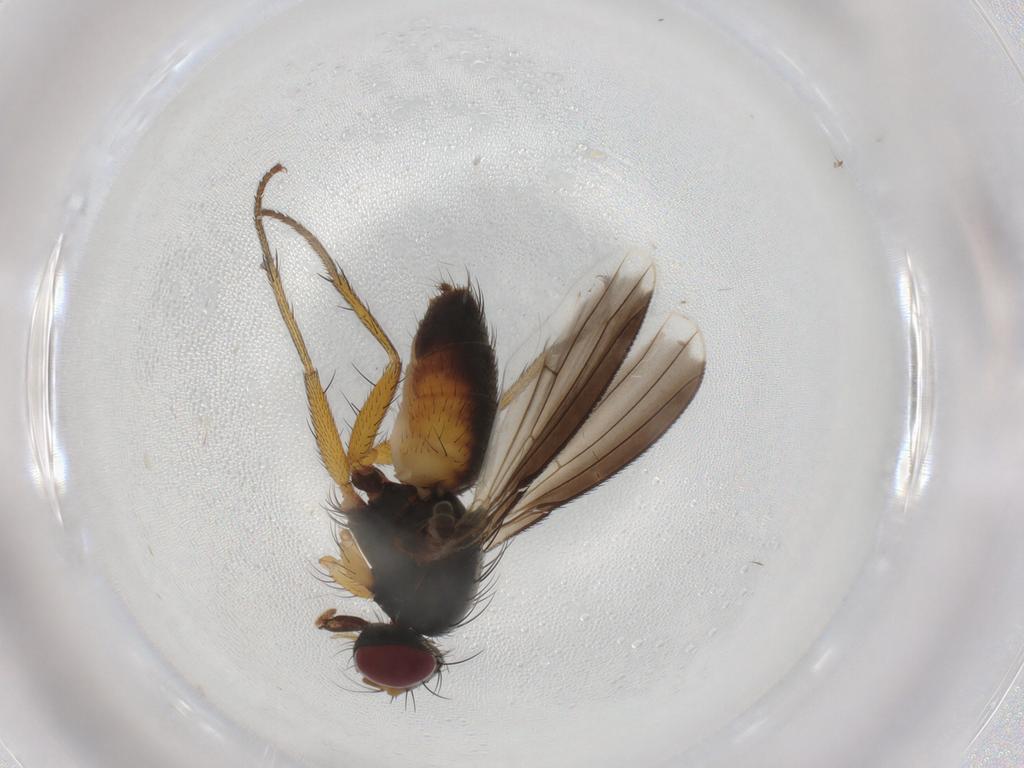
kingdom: Animalia
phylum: Arthropoda
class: Insecta
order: Diptera
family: Muscidae
